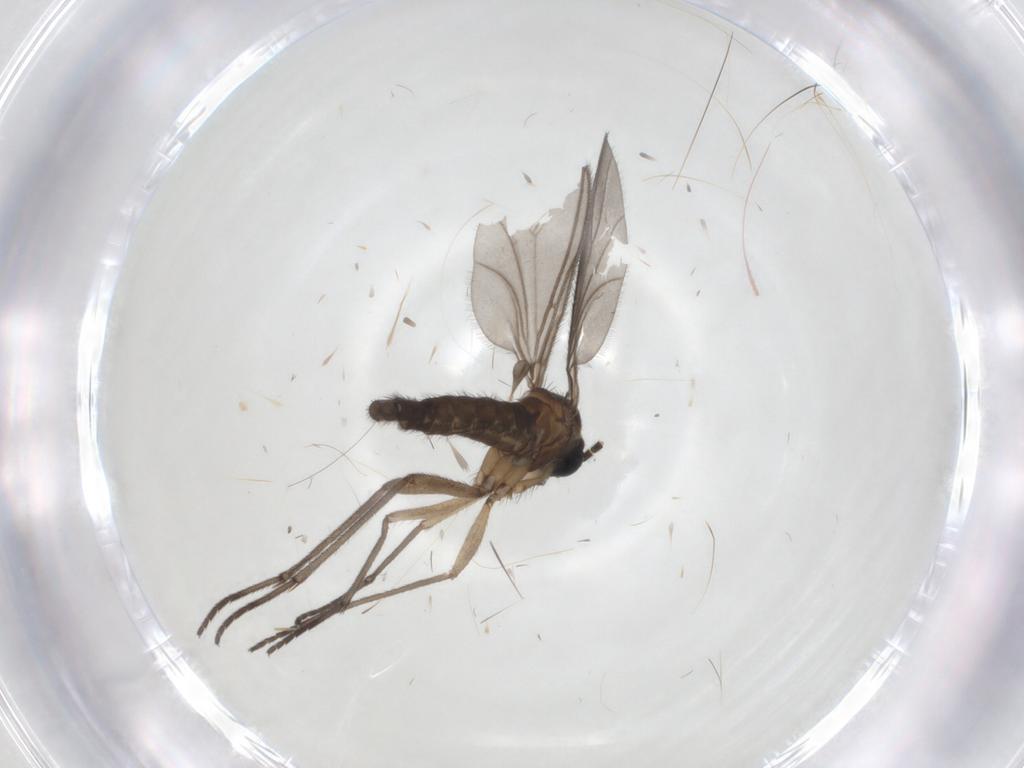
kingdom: Animalia
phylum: Arthropoda
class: Insecta
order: Diptera
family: Sciaridae
